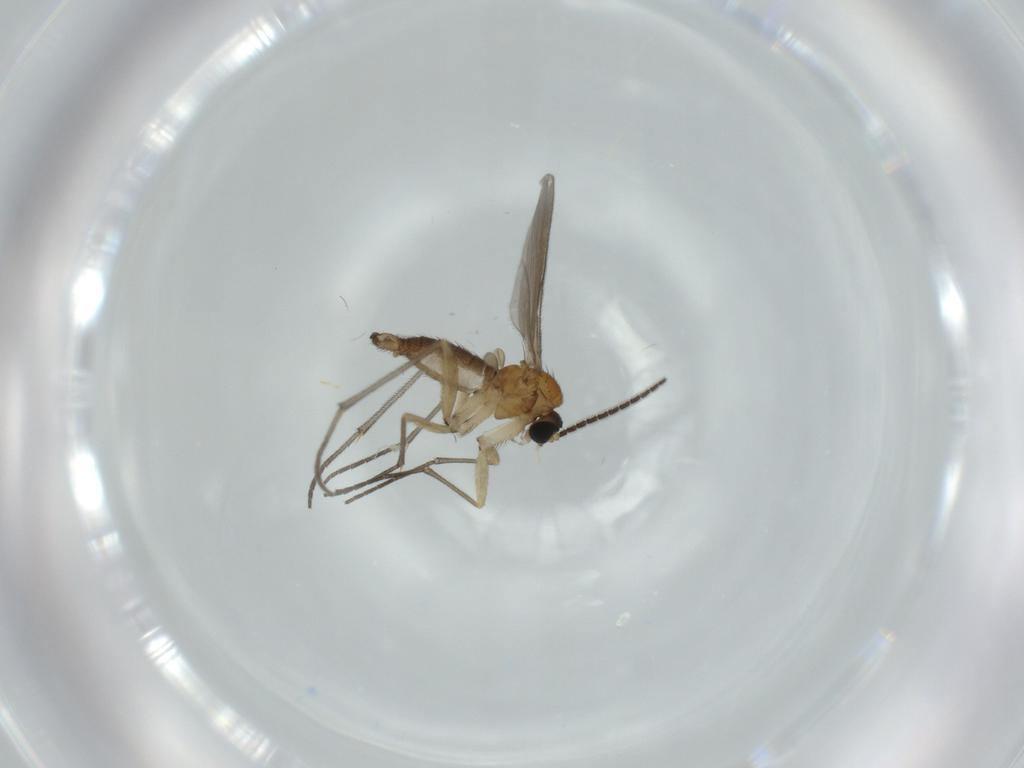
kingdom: Animalia
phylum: Arthropoda
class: Insecta
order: Diptera
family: Sciaridae
